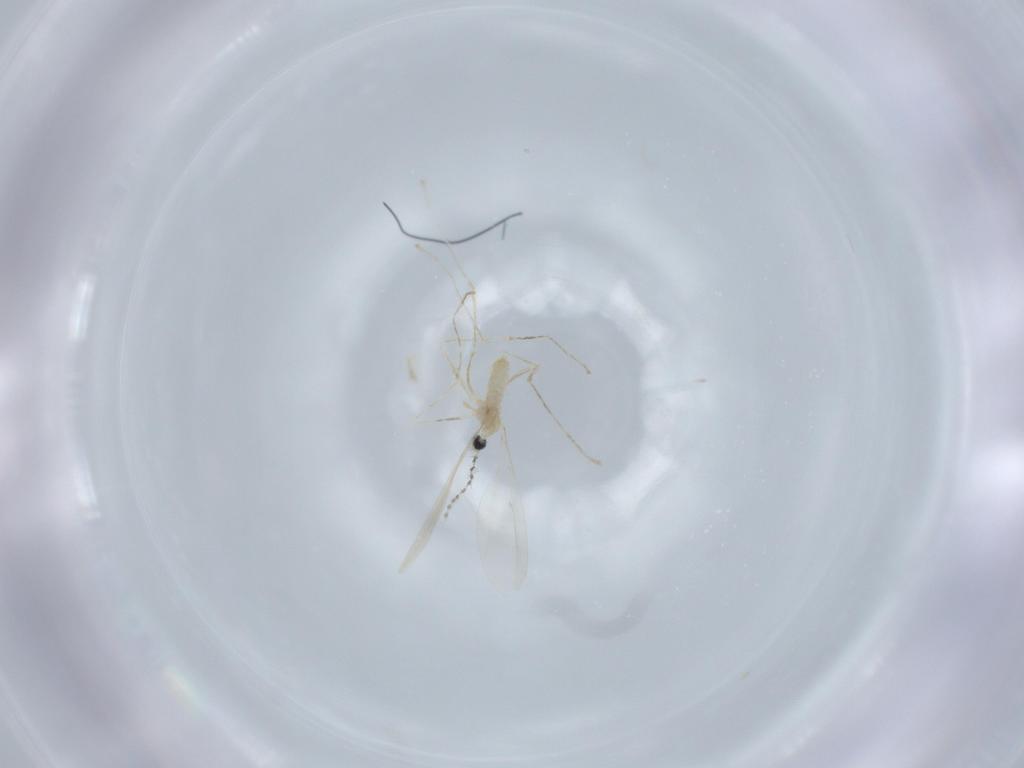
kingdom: Animalia
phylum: Arthropoda
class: Insecta
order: Diptera
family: Cecidomyiidae
